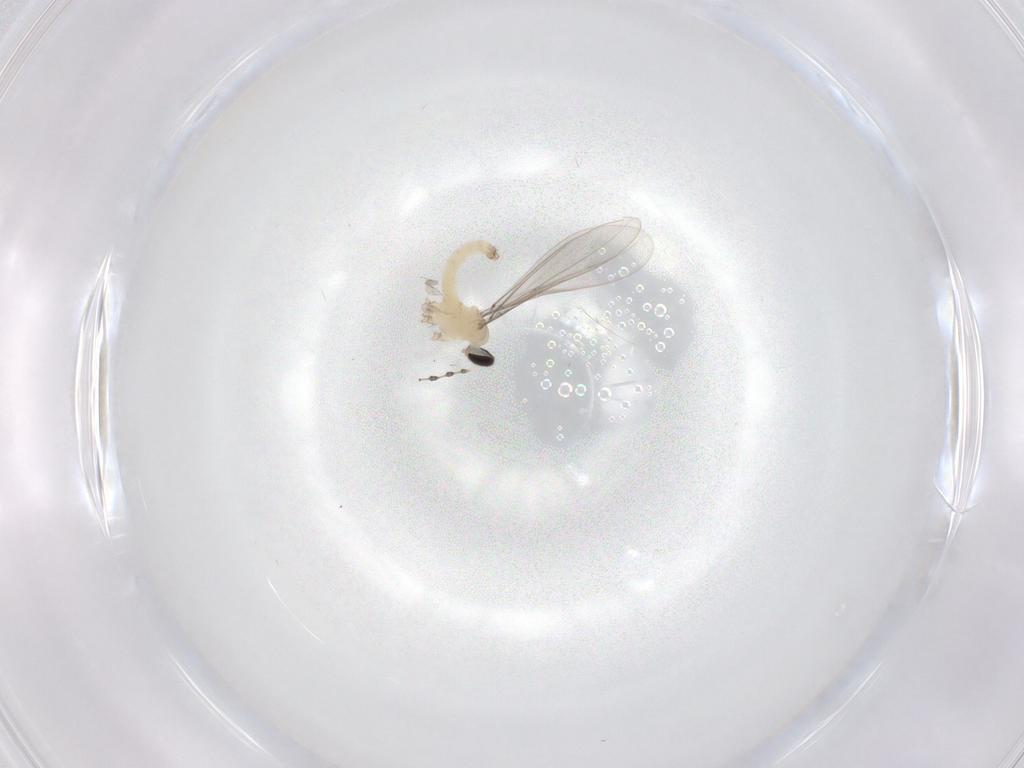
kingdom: Animalia
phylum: Arthropoda
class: Insecta
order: Diptera
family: Cecidomyiidae
